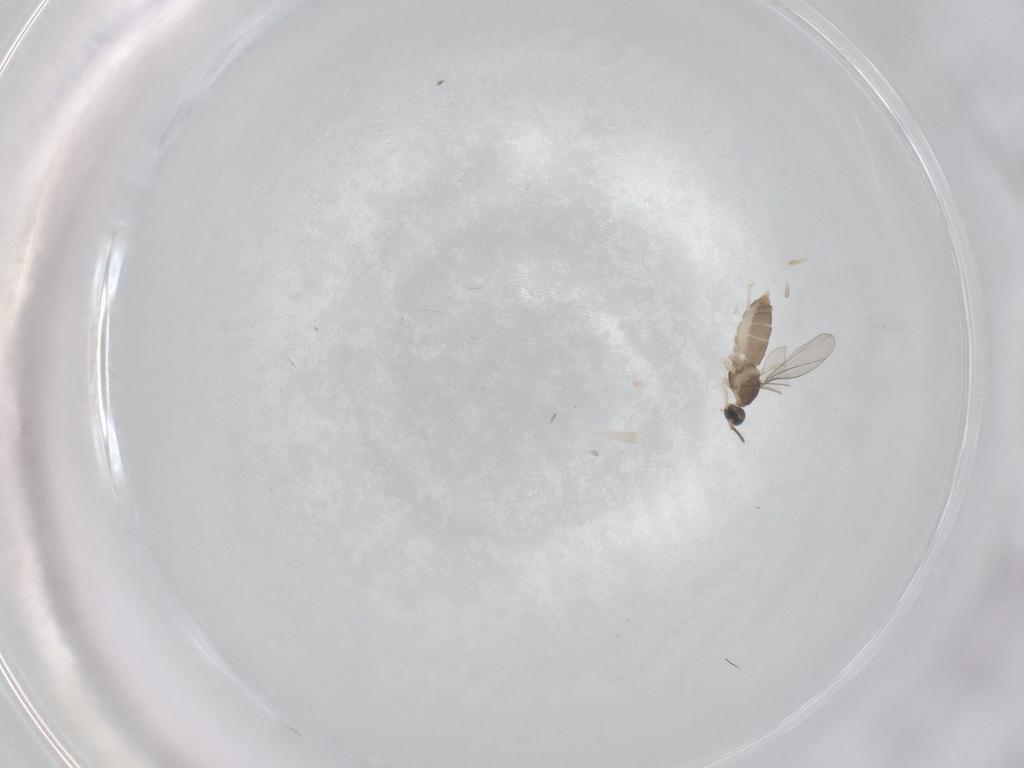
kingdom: Animalia
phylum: Arthropoda
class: Insecta
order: Diptera
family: Cecidomyiidae
